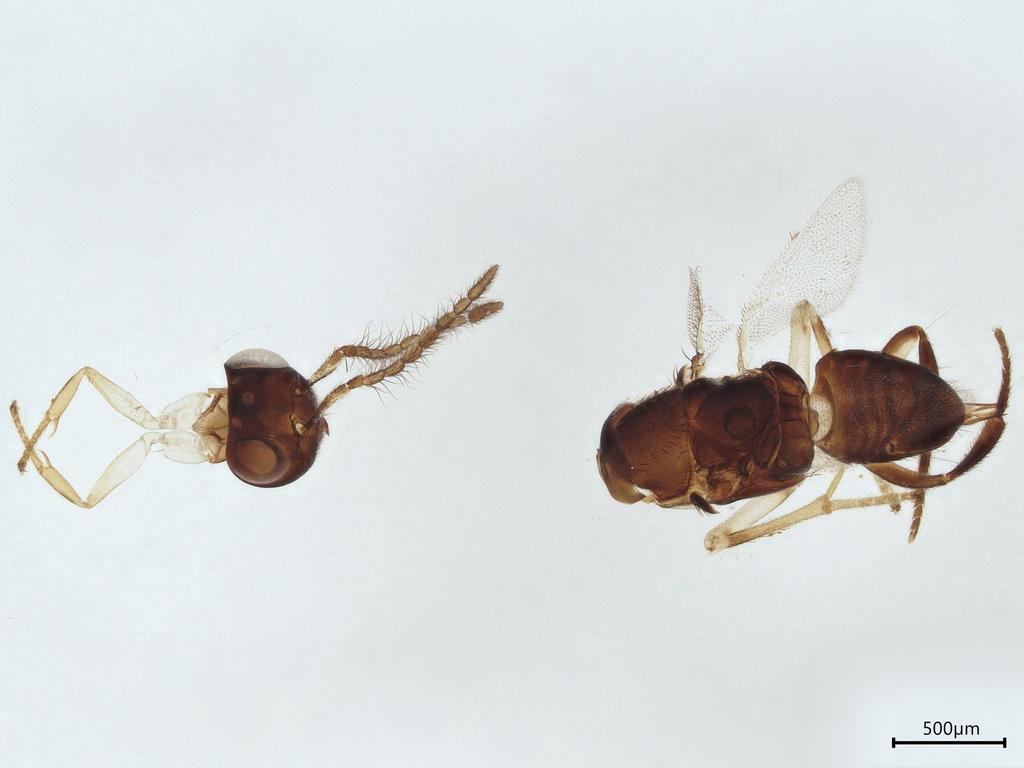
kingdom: Animalia
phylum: Arthropoda
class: Insecta
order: Hymenoptera
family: Encyrtidae
